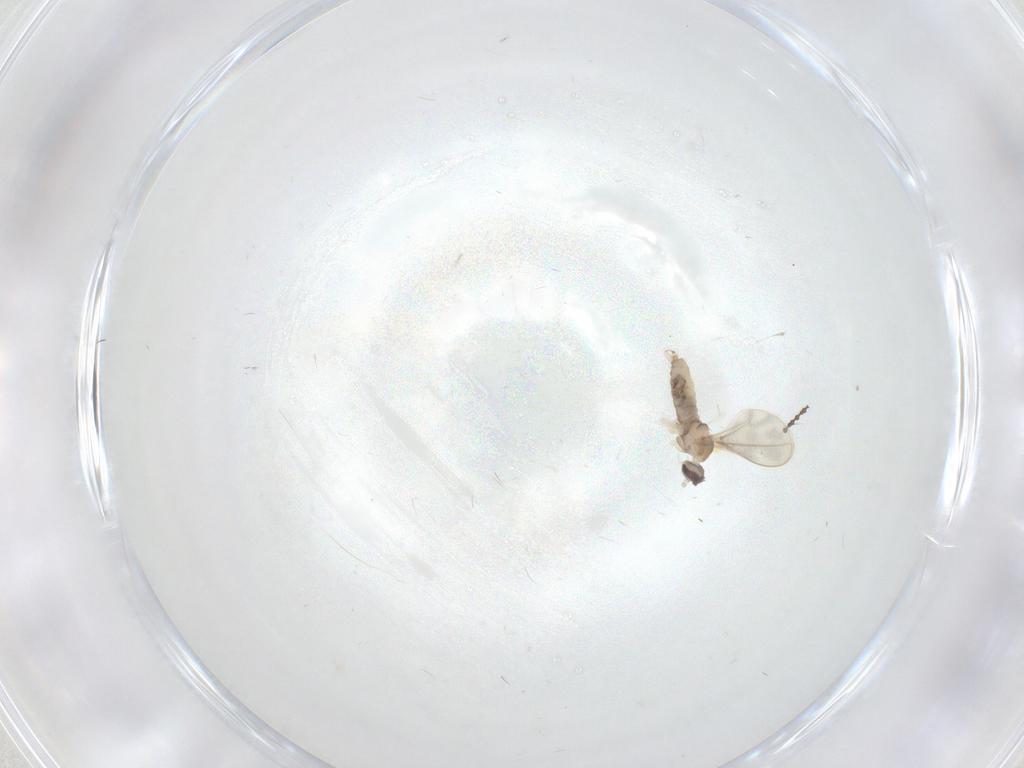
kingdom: Animalia
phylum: Arthropoda
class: Insecta
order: Diptera
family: Cecidomyiidae
